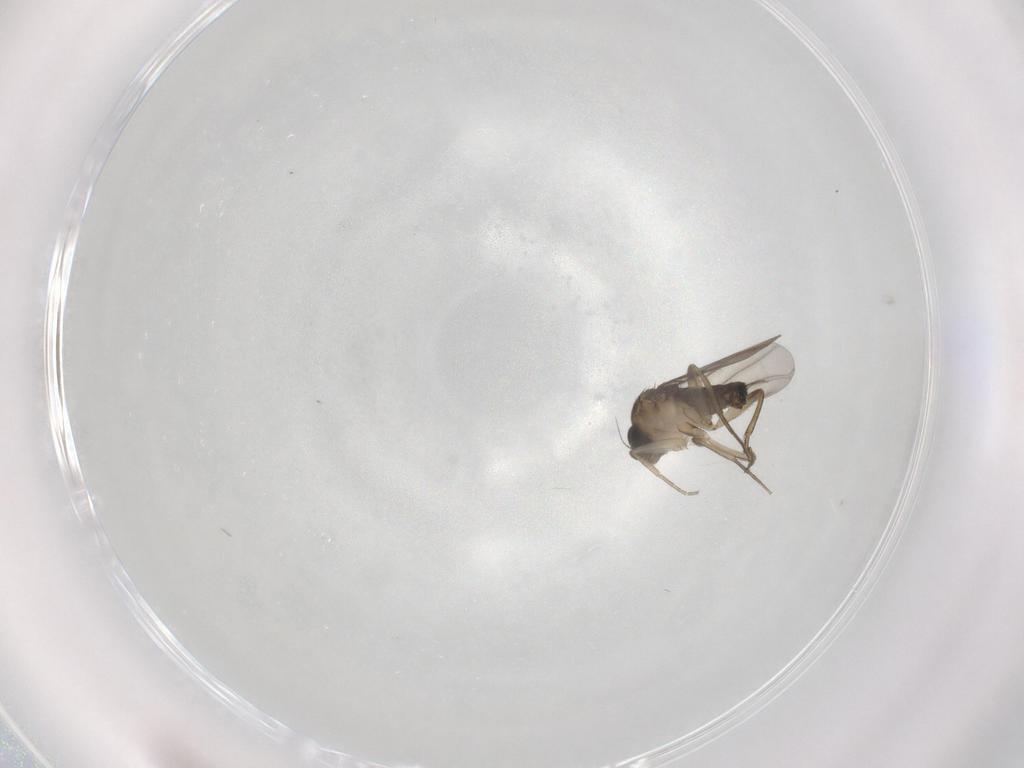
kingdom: Animalia
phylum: Arthropoda
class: Insecta
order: Diptera
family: Phoridae
